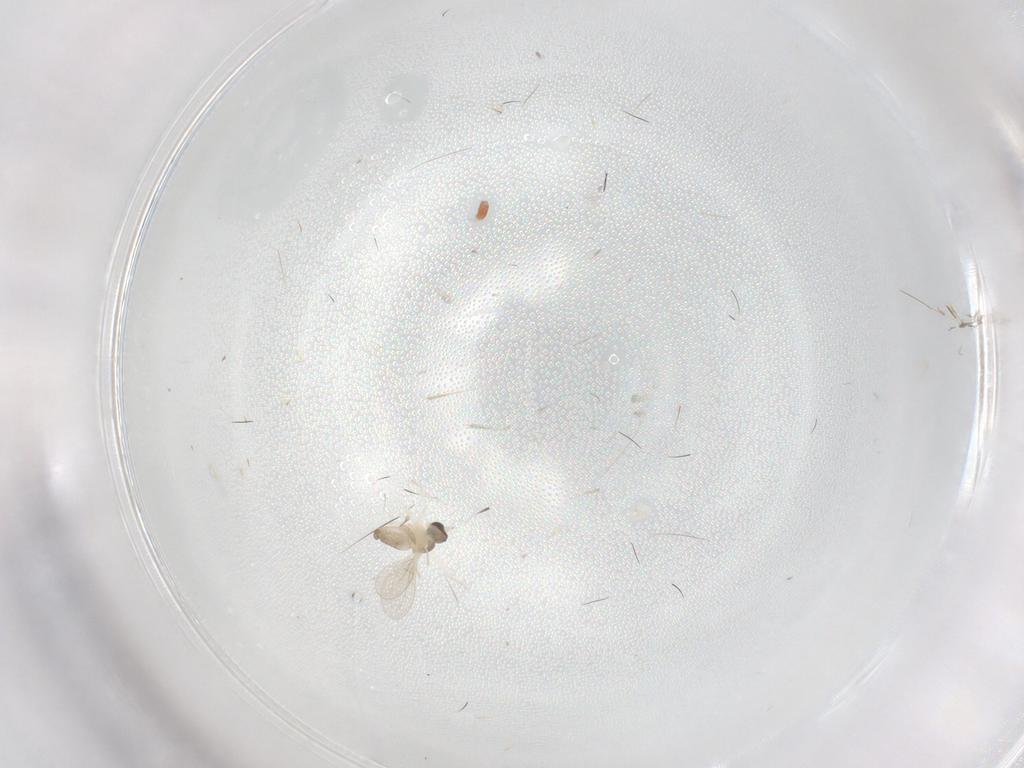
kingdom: Animalia
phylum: Arthropoda
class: Insecta
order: Diptera
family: Cecidomyiidae
